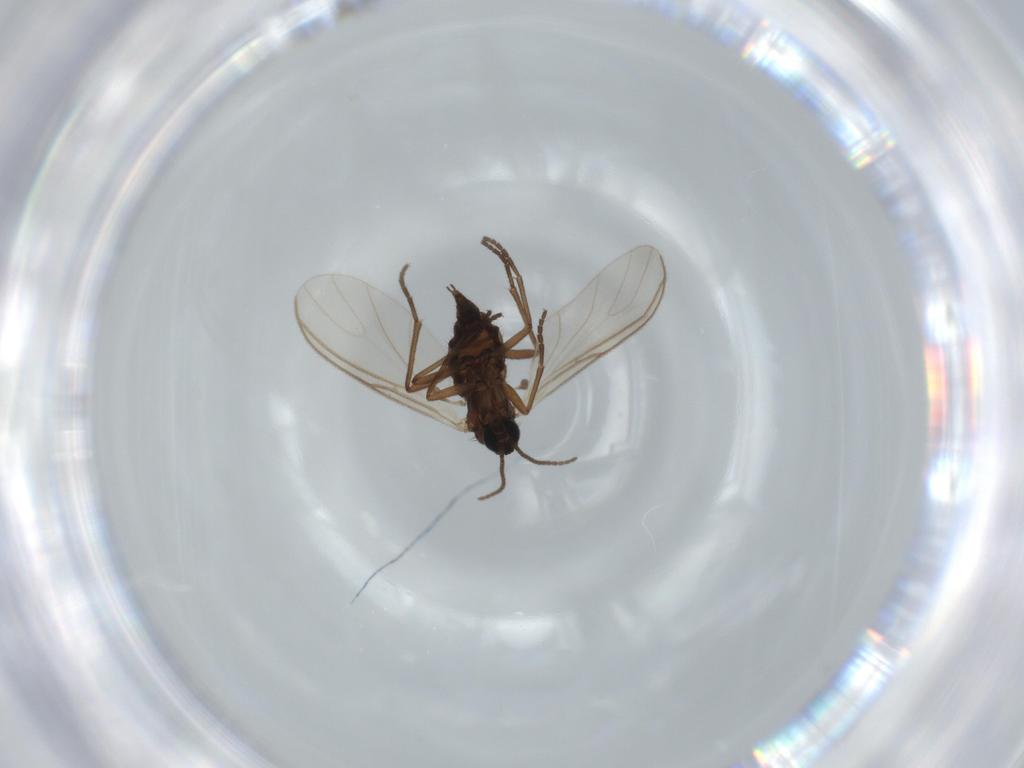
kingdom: Animalia
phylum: Arthropoda
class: Insecta
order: Diptera
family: Sciaridae
